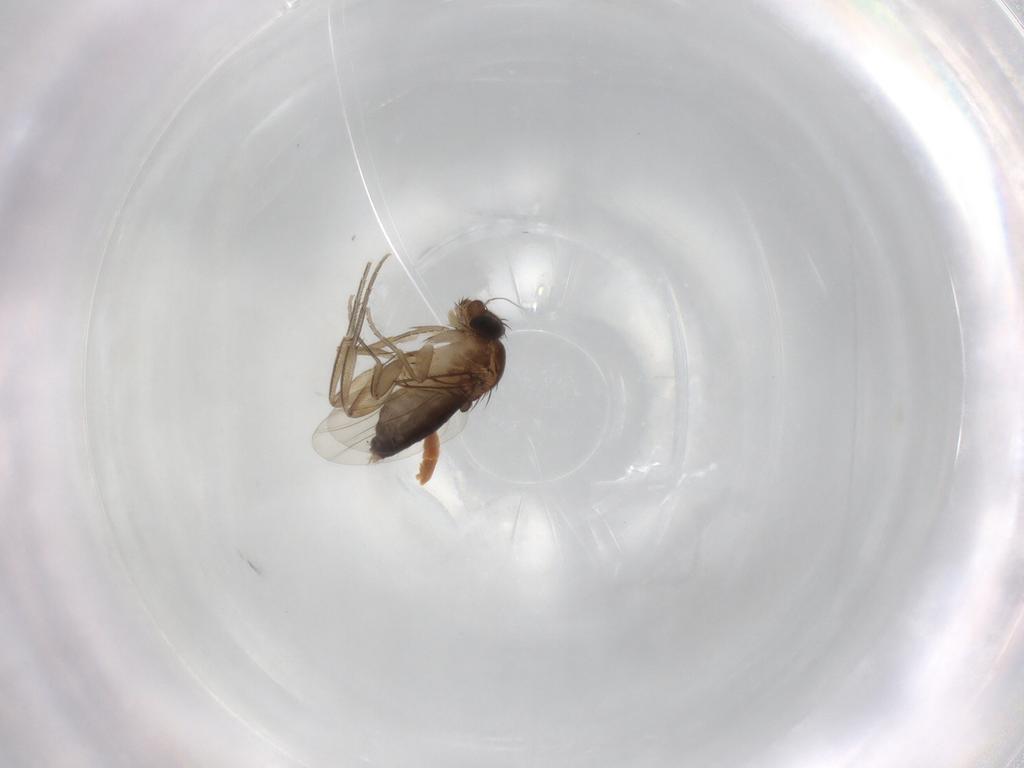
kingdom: Animalia
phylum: Arthropoda
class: Insecta
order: Diptera
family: Phoridae
